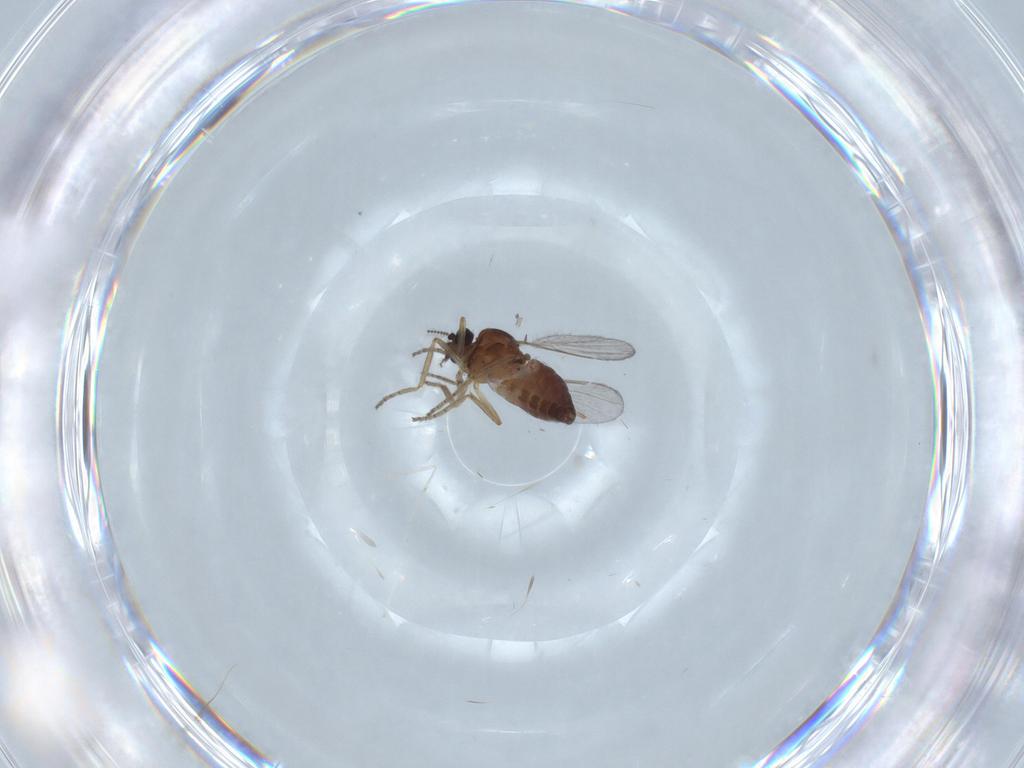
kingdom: Animalia
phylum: Arthropoda
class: Insecta
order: Diptera
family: Ceratopogonidae
